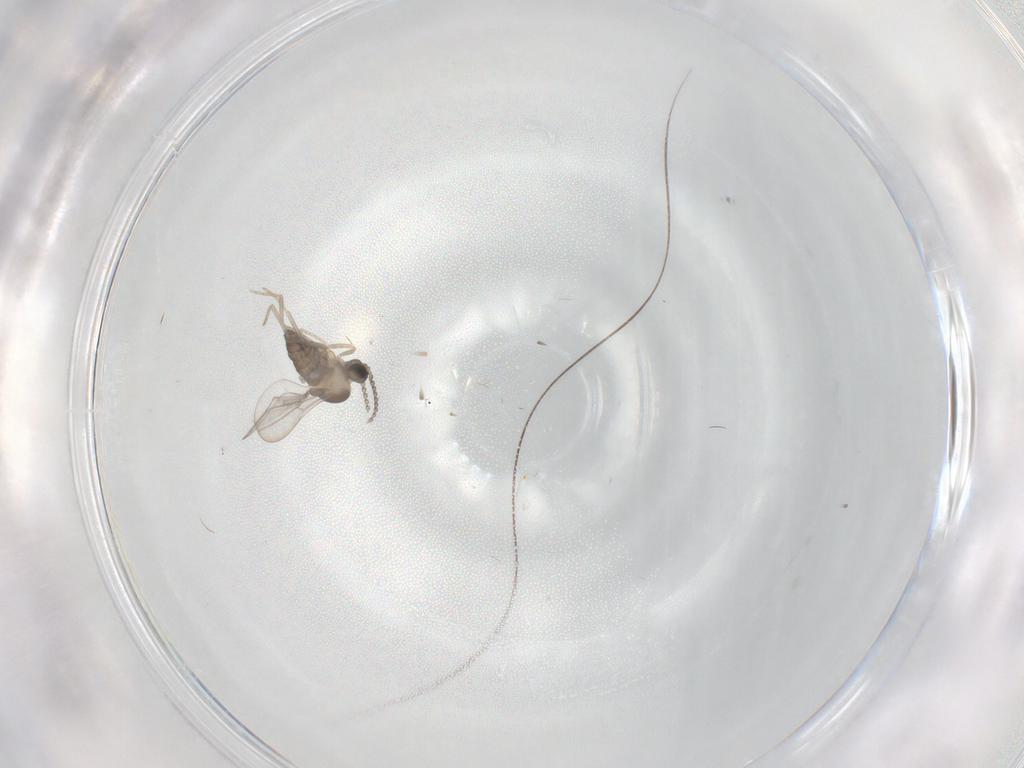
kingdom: Animalia
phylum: Arthropoda
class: Insecta
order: Diptera
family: Cecidomyiidae
